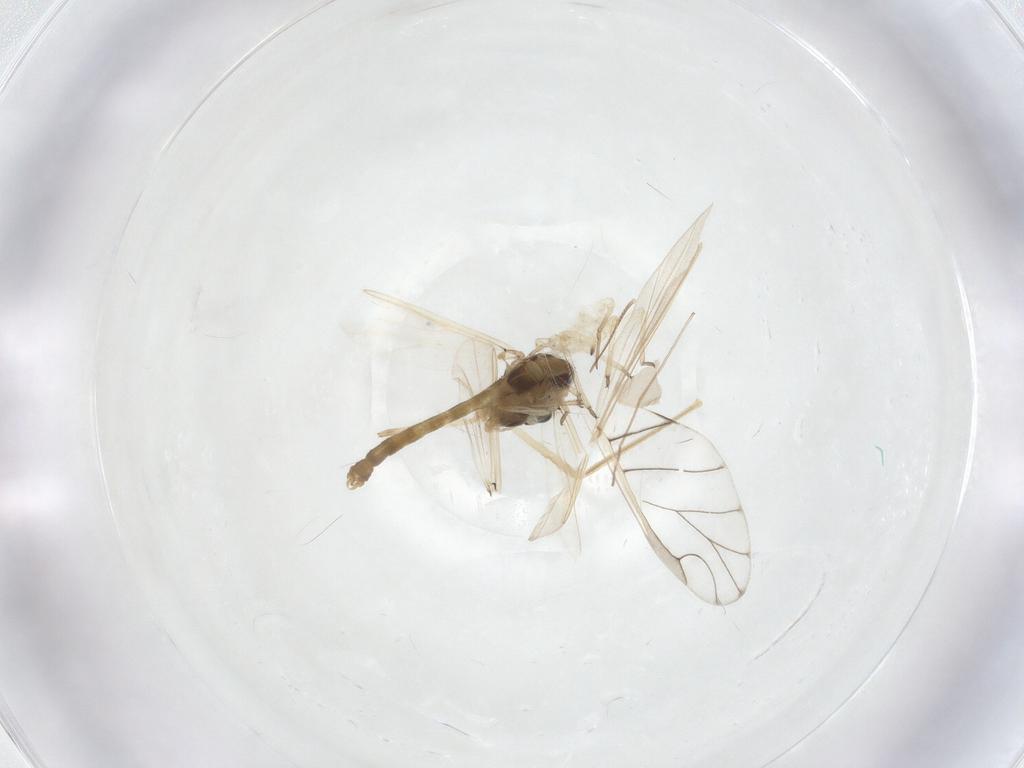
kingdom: Animalia
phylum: Arthropoda
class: Insecta
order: Diptera
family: Chironomidae
